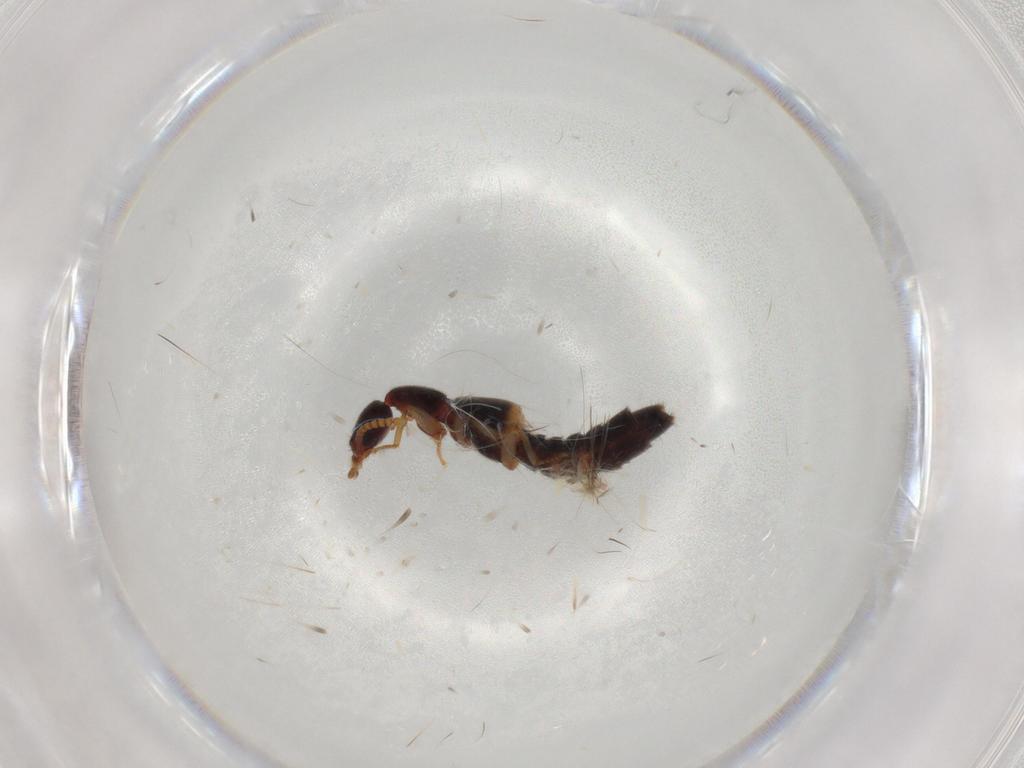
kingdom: Animalia
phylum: Arthropoda
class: Insecta
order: Coleoptera
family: Staphylinidae
